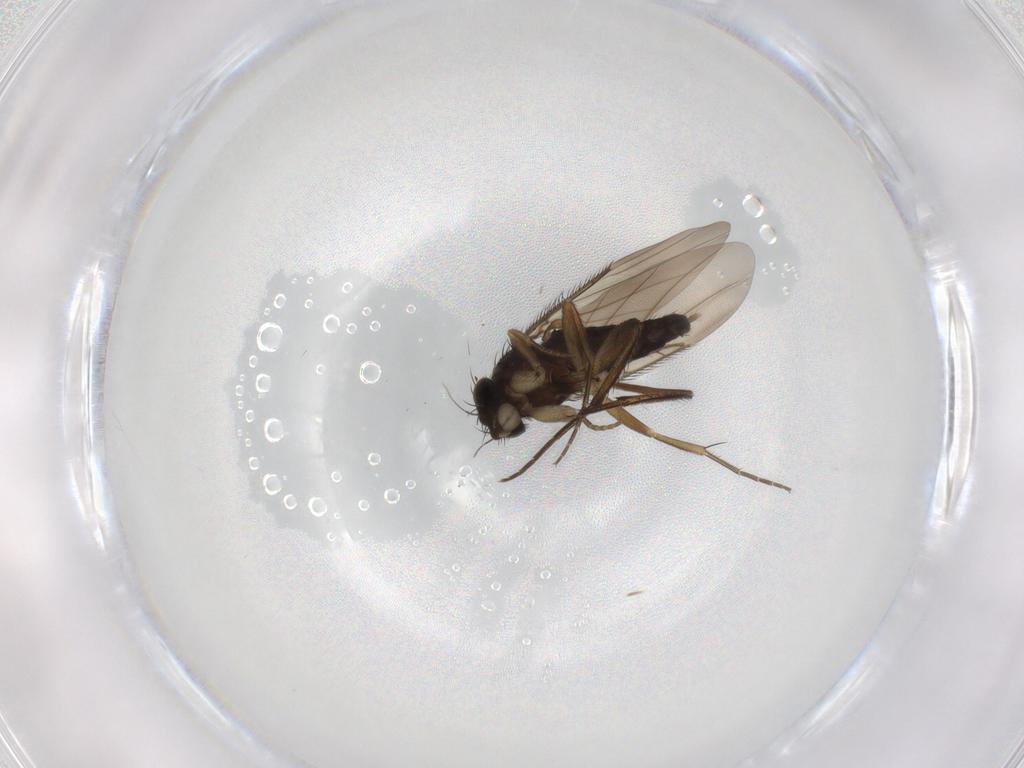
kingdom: Animalia
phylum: Arthropoda
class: Insecta
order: Diptera
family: Phoridae
